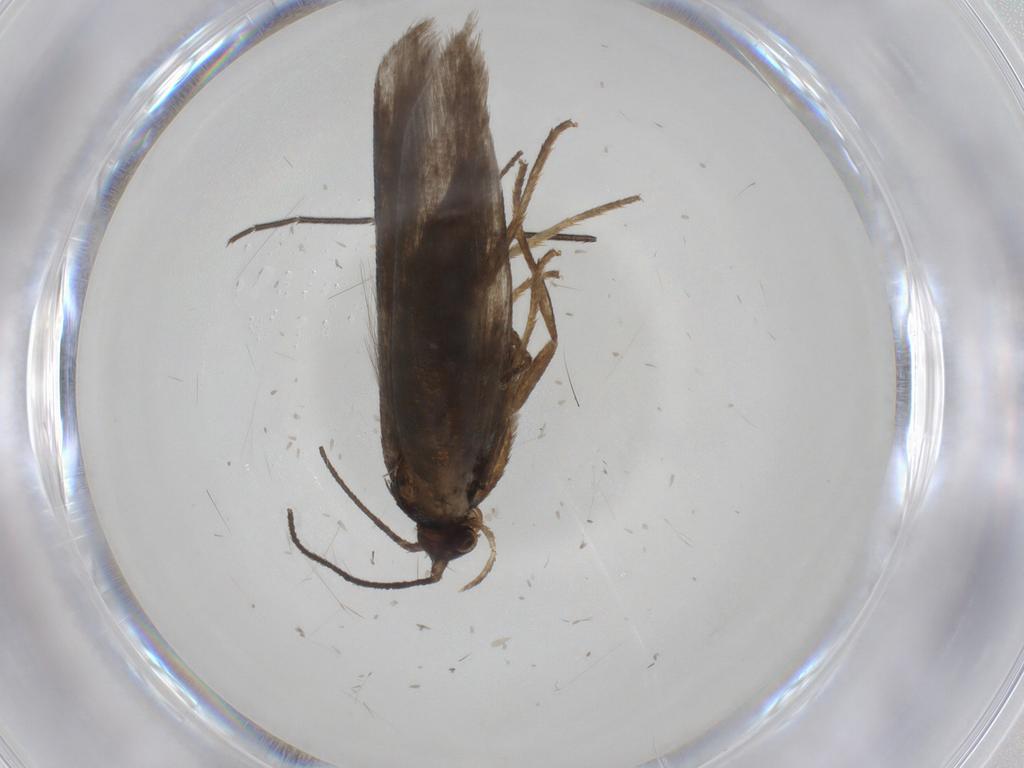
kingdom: Animalia
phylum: Arthropoda
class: Insecta
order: Lepidoptera
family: Argyresthiidae
